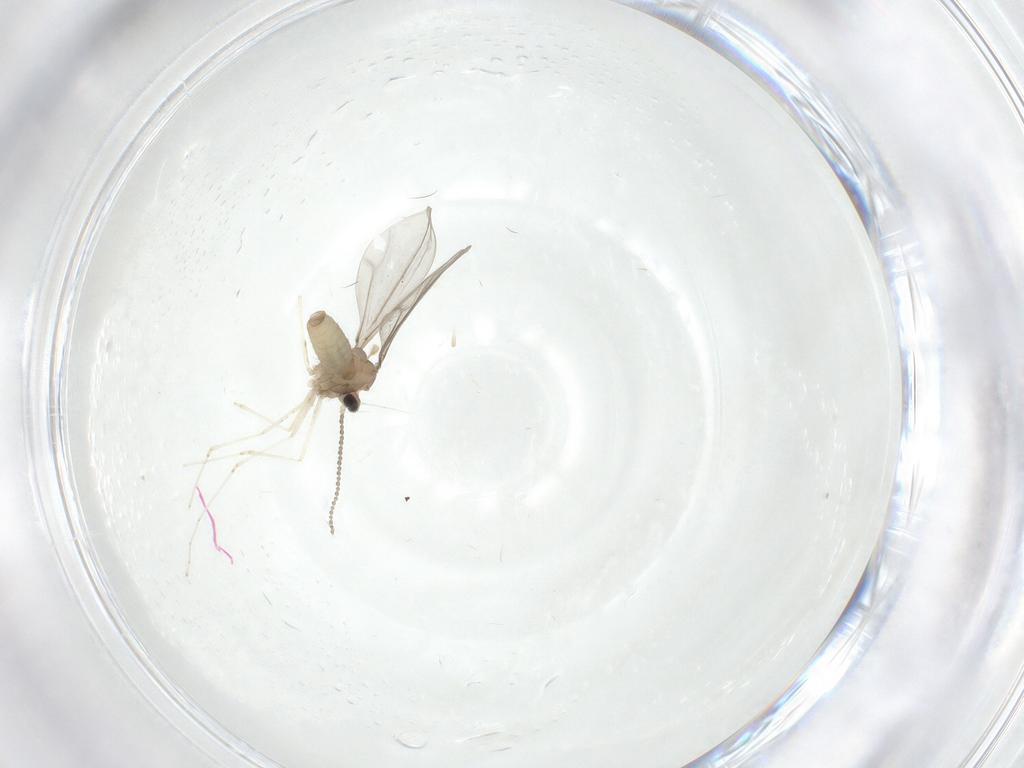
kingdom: Animalia
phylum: Arthropoda
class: Insecta
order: Diptera
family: Cecidomyiidae
